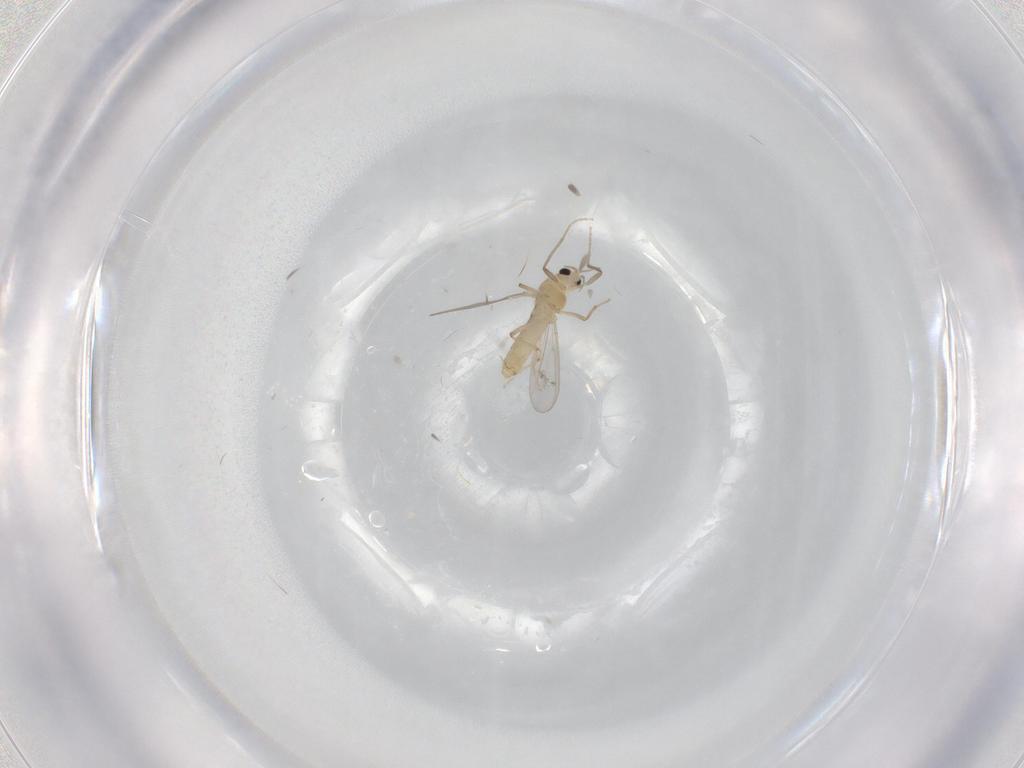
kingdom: Animalia
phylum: Arthropoda
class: Insecta
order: Diptera
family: Chironomidae
